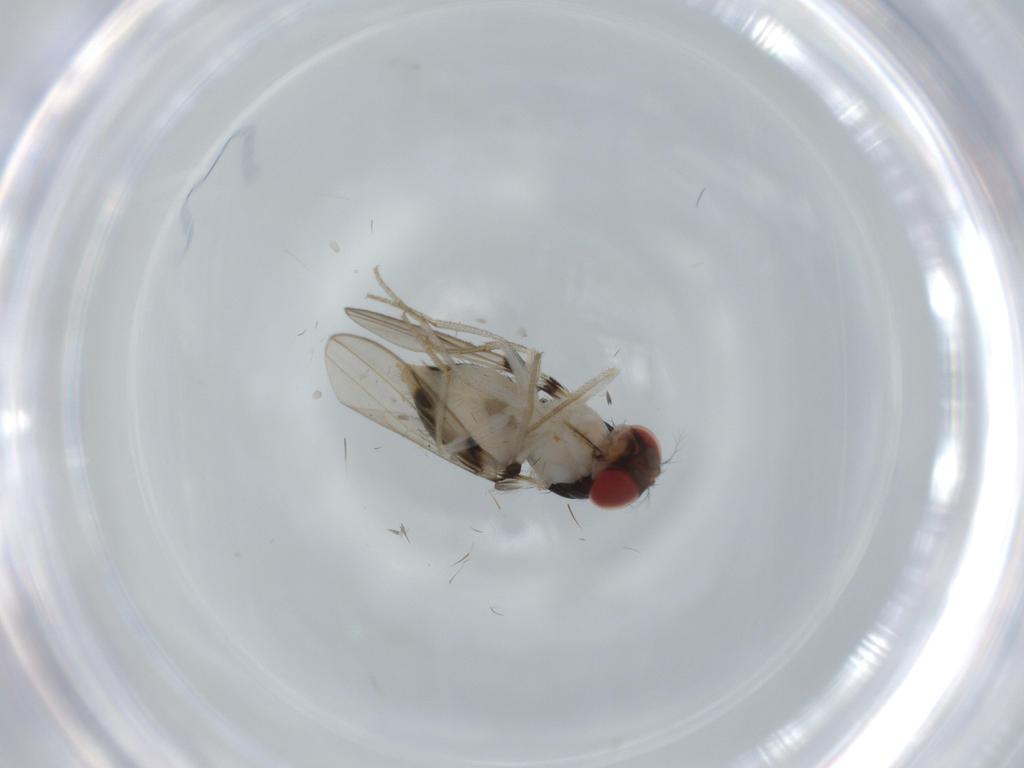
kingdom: Animalia
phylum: Arthropoda
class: Insecta
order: Diptera
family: Drosophilidae
